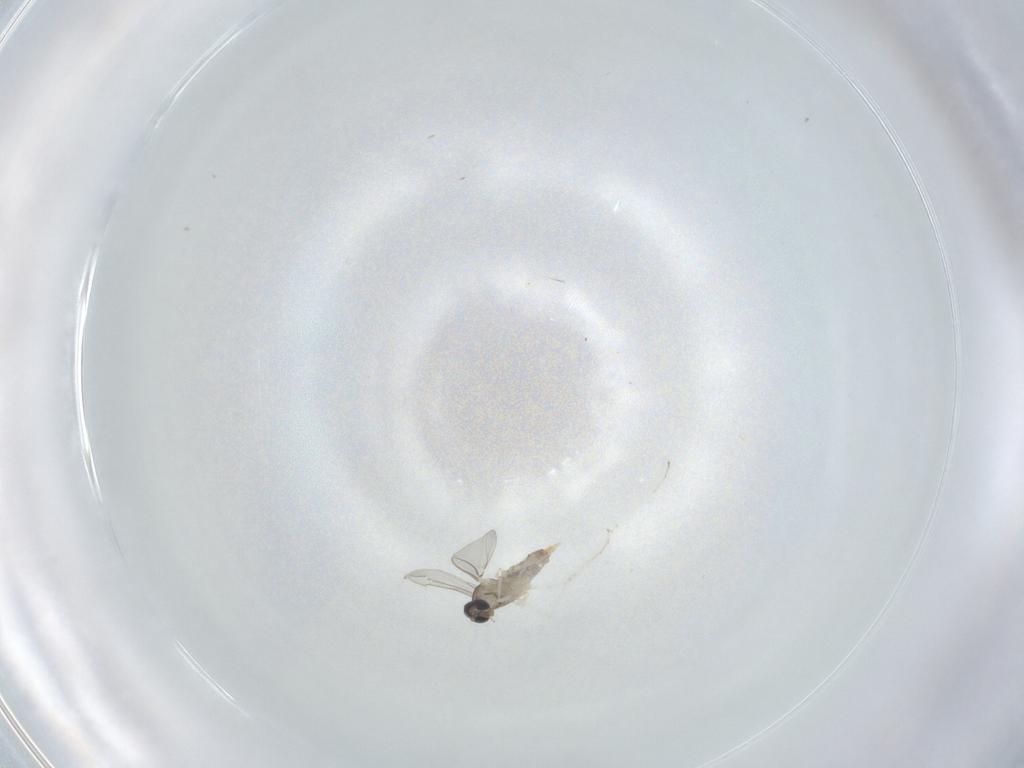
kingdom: Animalia
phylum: Arthropoda
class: Insecta
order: Diptera
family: Cecidomyiidae
